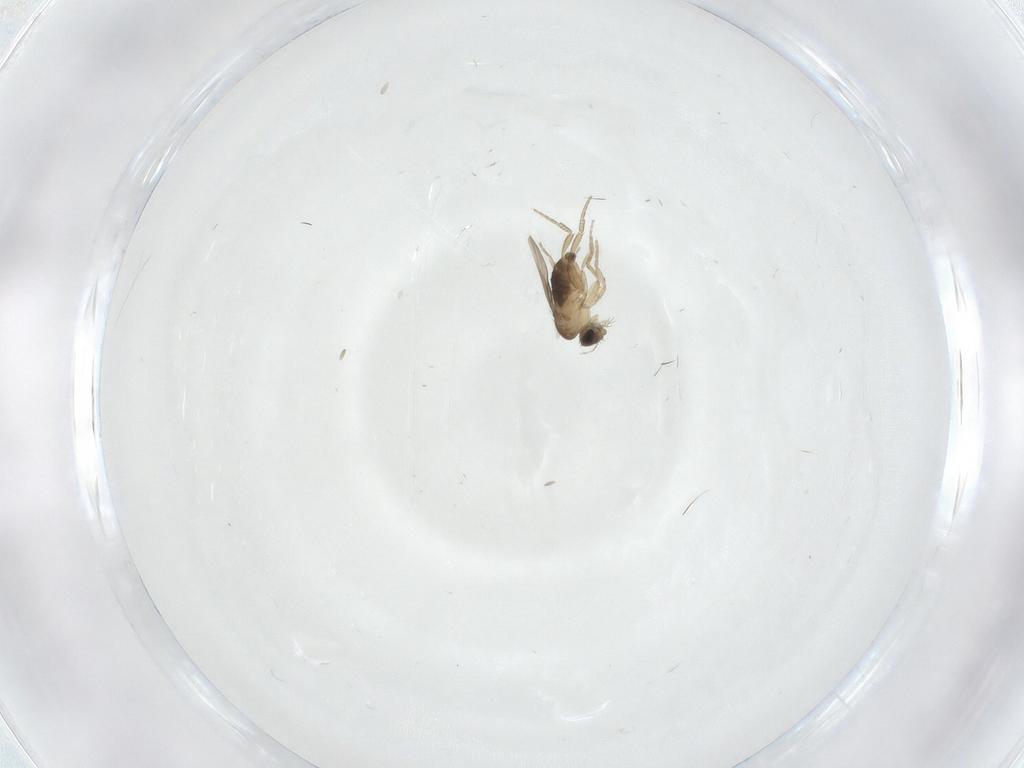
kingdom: Animalia
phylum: Arthropoda
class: Insecta
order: Diptera
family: Phoridae
